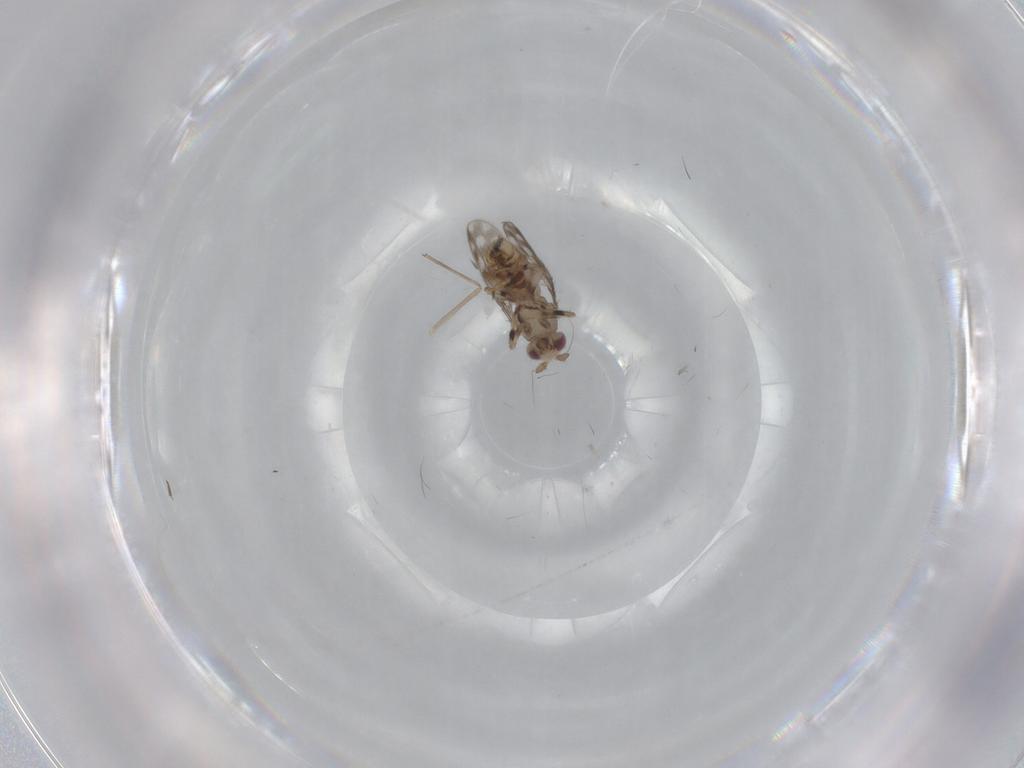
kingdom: Animalia
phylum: Arthropoda
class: Insecta
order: Diptera
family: Sphaeroceridae
